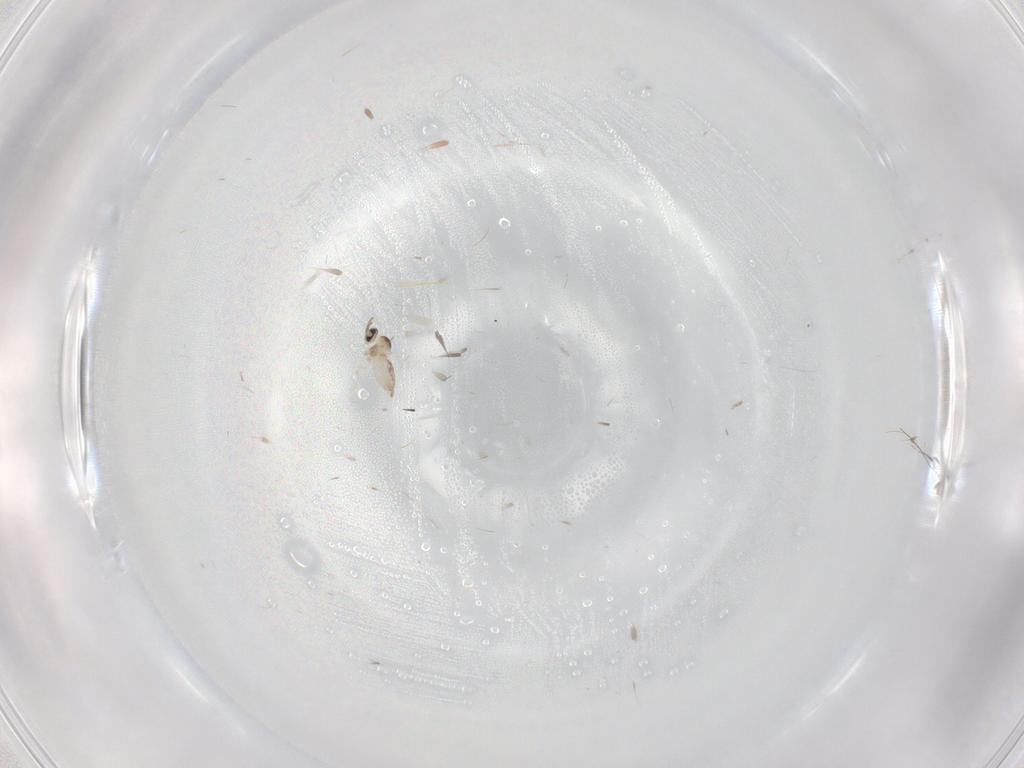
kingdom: Animalia
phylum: Arthropoda
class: Insecta
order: Diptera
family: Cecidomyiidae
